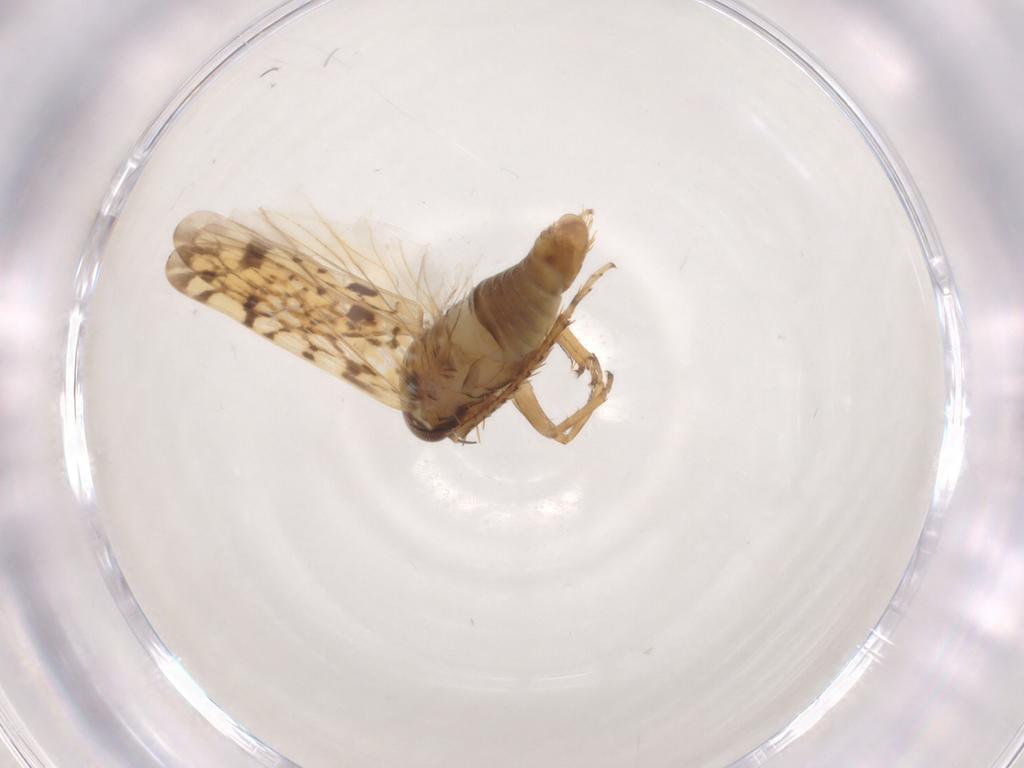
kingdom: Animalia
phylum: Arthropoda
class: Insecta
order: Hemiptera
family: Cicadellidae
